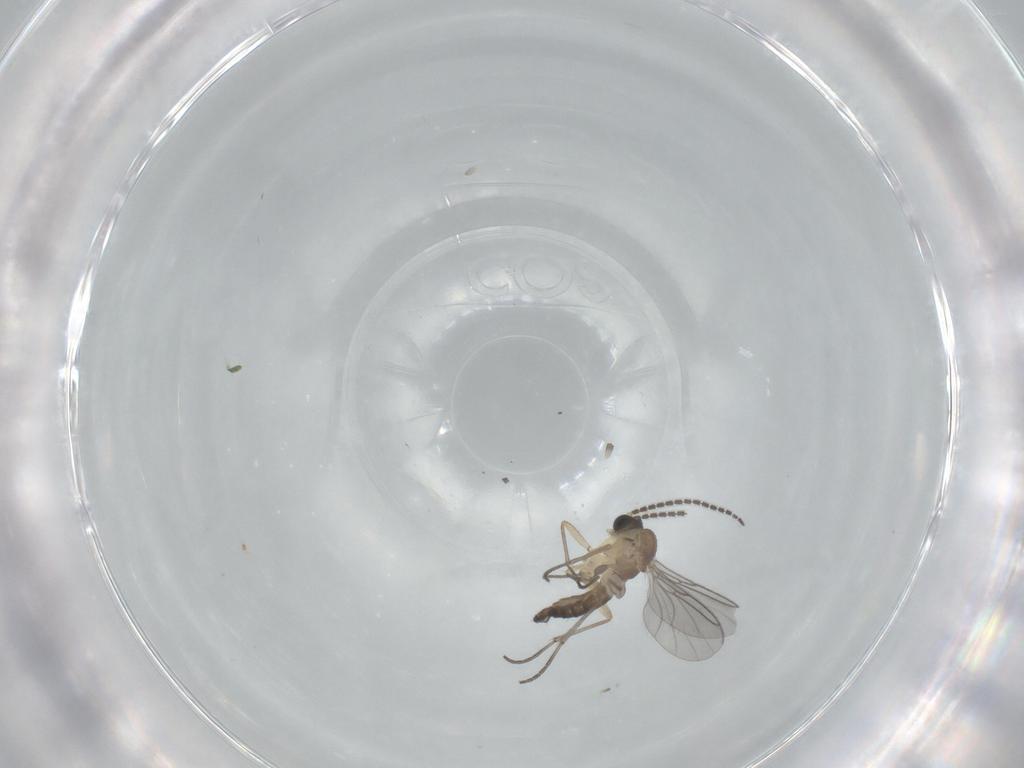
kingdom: Animalia
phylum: Arthropoda
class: Insecta
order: Diptera
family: Sciaridae
